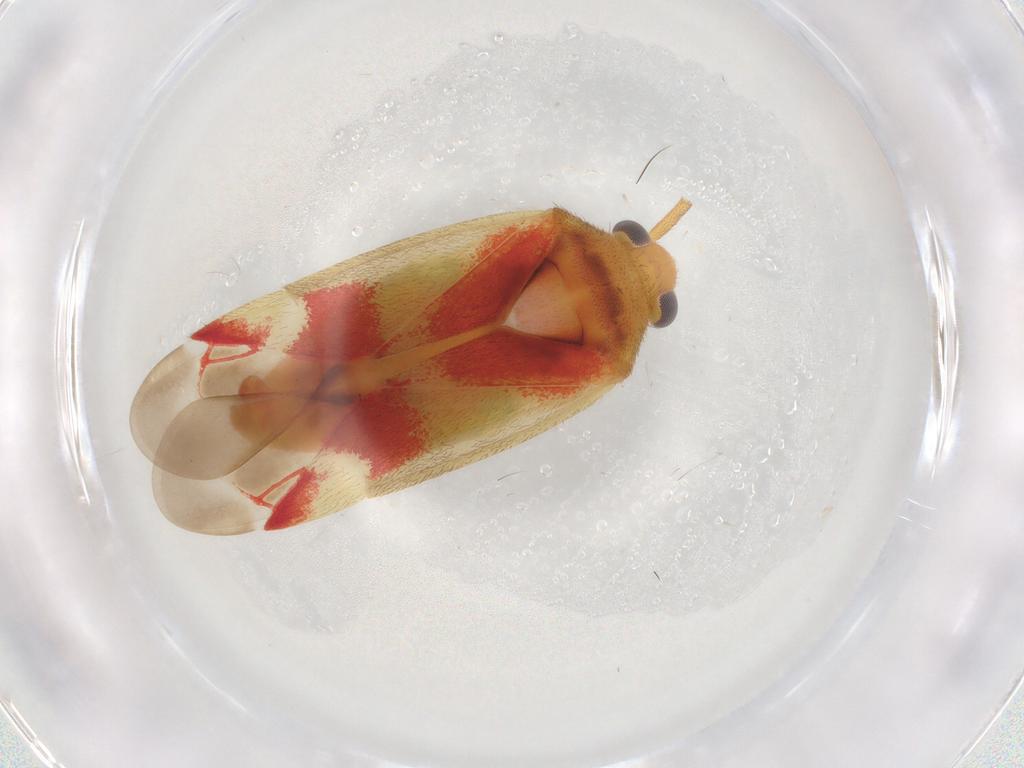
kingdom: Animalia
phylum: Arthropoda
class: Insecta
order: Hemiptera
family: Miridae
